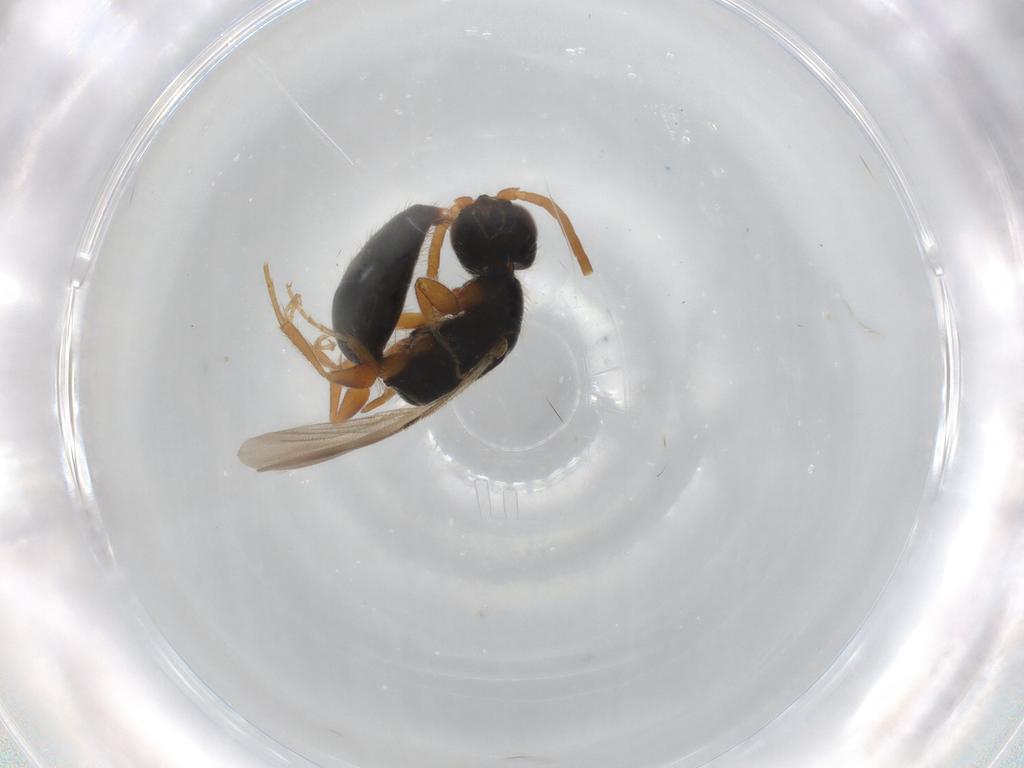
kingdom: Animalia
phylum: Arthropoda
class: Insecta
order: Hymenoptera
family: Bethylidae
